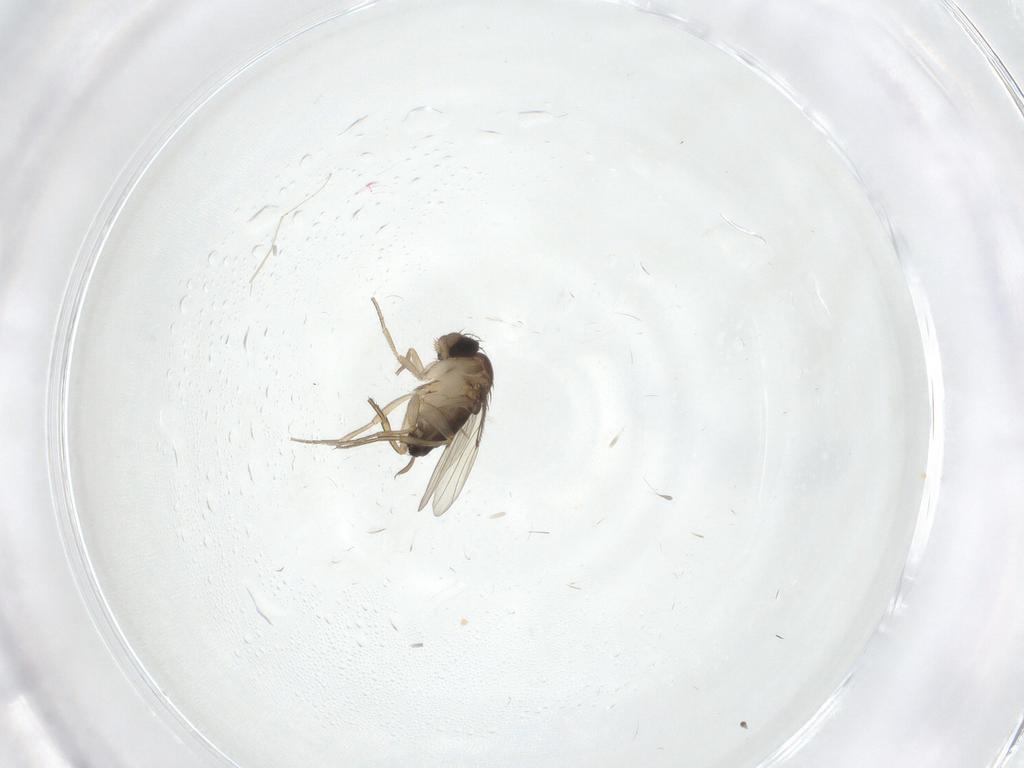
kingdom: Animalia
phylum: Arthropoda
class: Insecta
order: Diptera
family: Cecidomyiidae
